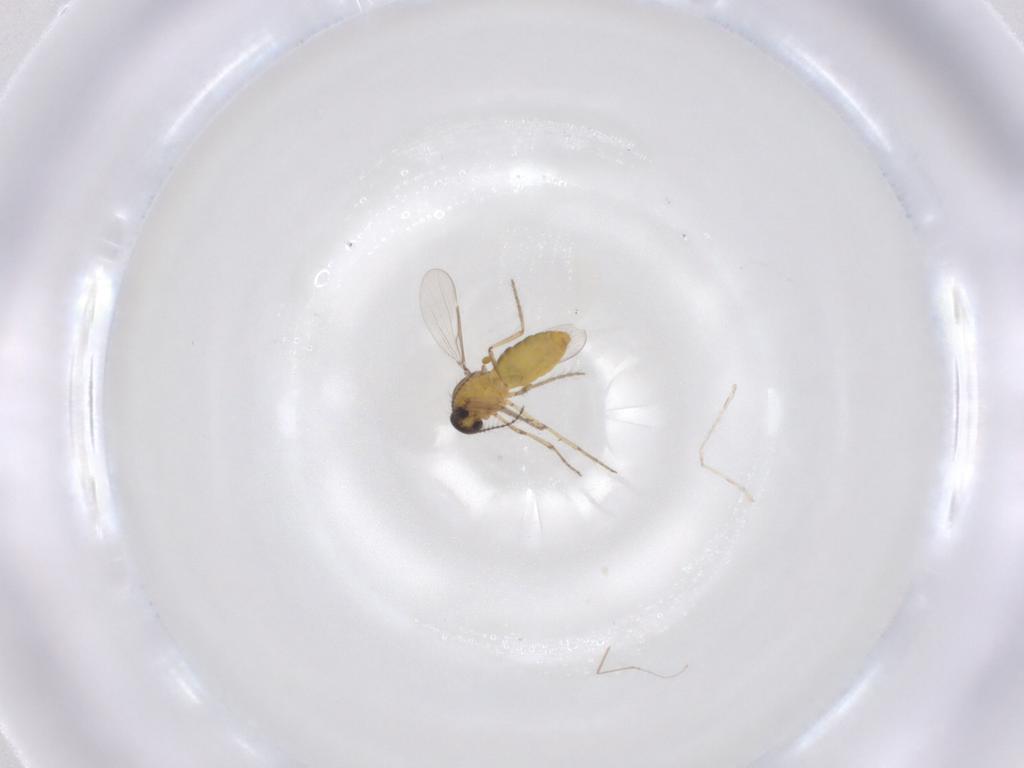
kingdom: Animalia
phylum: Arthropoda
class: Insecta
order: Diptera
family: Ceratopogonidae
